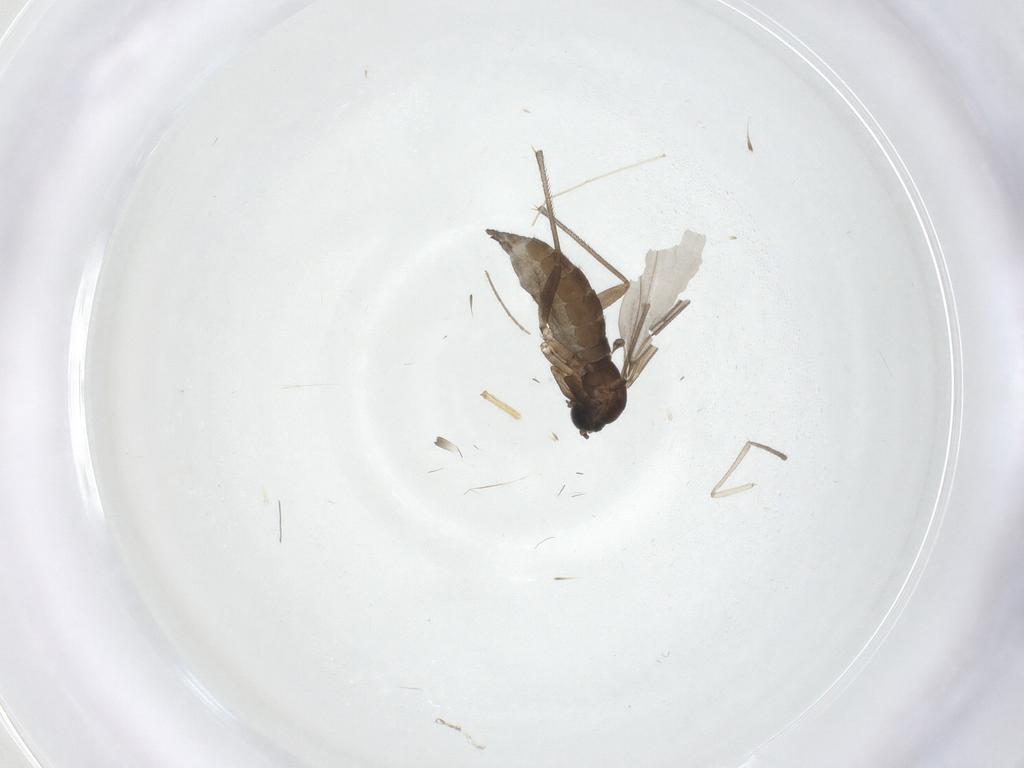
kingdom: Animalia
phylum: Arthropoda
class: Insecta
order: Diptera
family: Sciaridae
